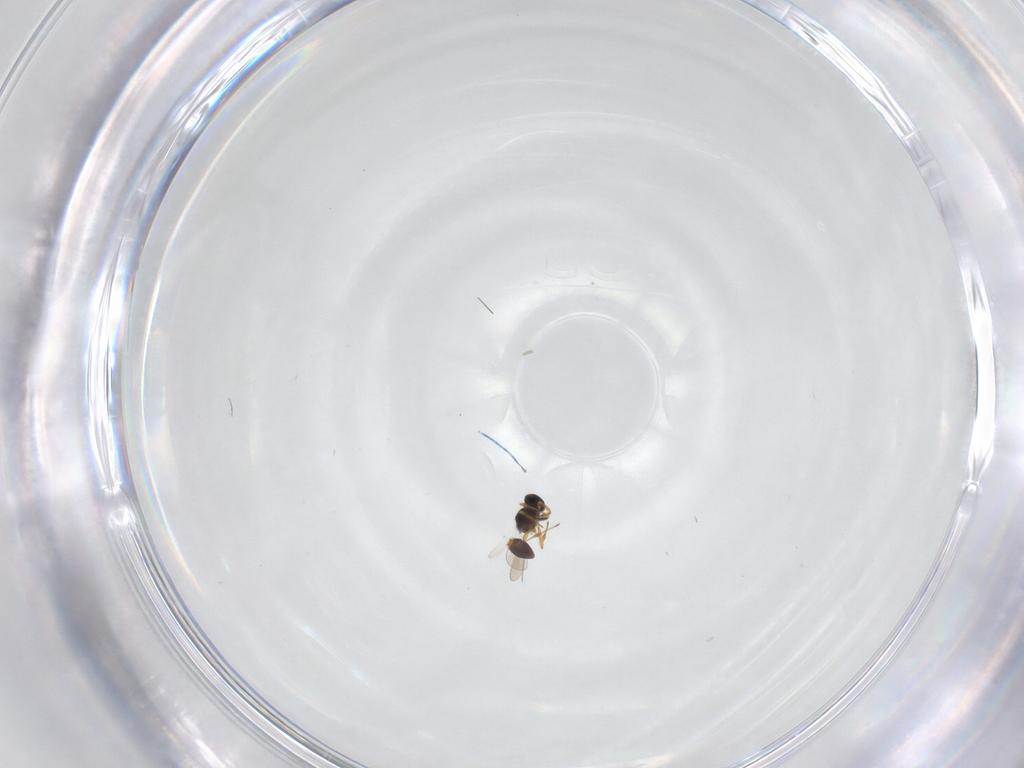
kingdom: Animalia
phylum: Arthropoda
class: Insecta
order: Hymenoptera
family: Platygastridae
